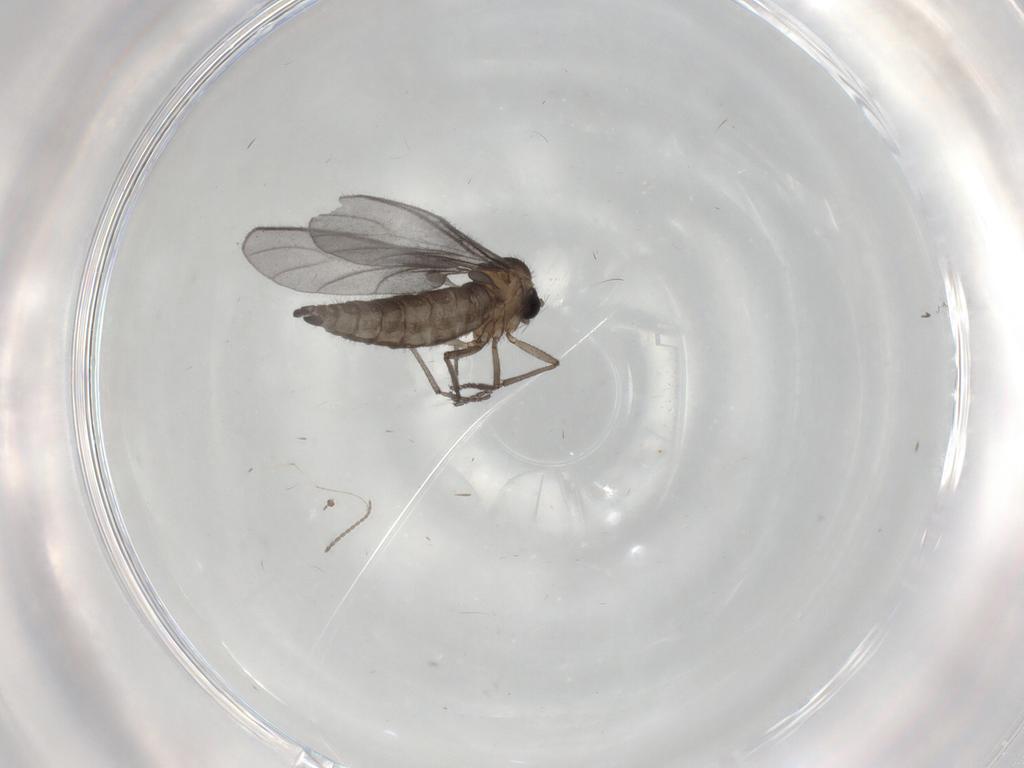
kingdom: Animalia
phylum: Arthropoda
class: Insecta
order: Diptera
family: Sciaridae
